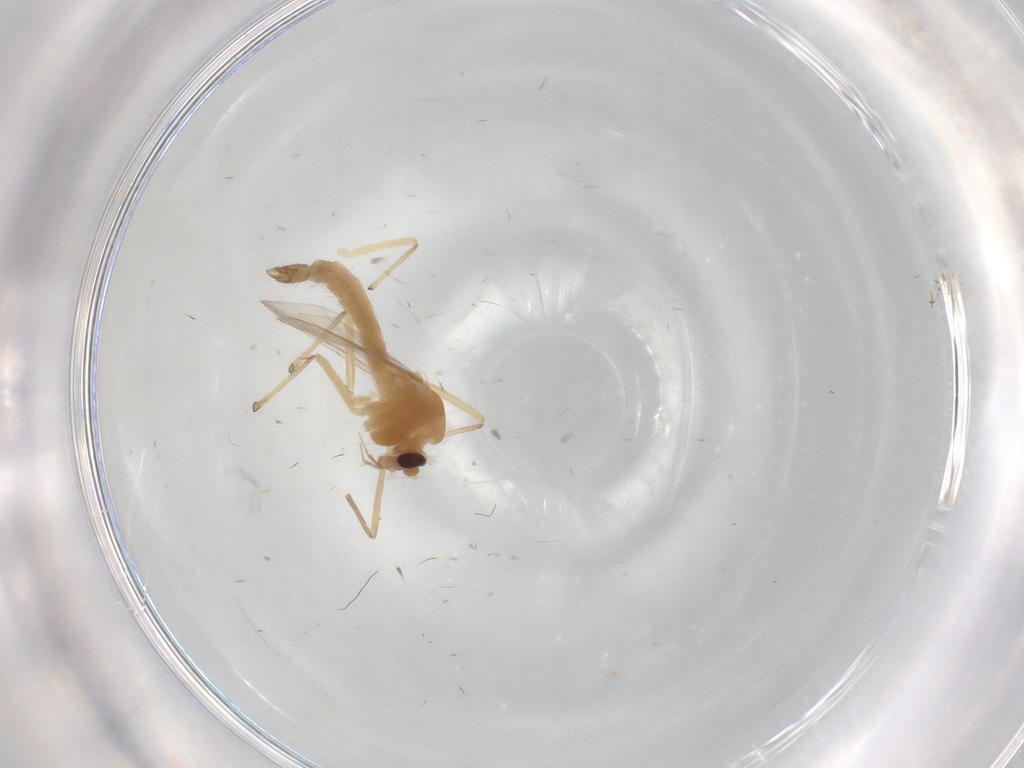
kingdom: Animalia
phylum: Arthropoda
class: Insecta
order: Diptera
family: Chironomidae
